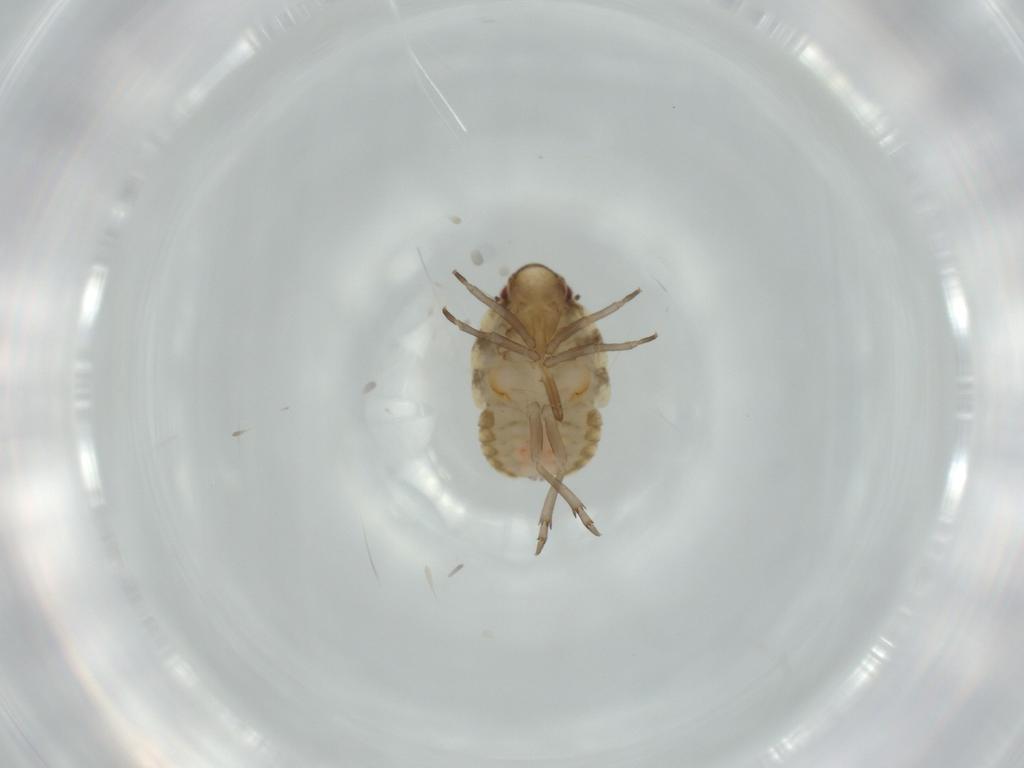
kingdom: Animalia
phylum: Arthropoda
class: Insecta
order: Hemiptera
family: Flatidae
